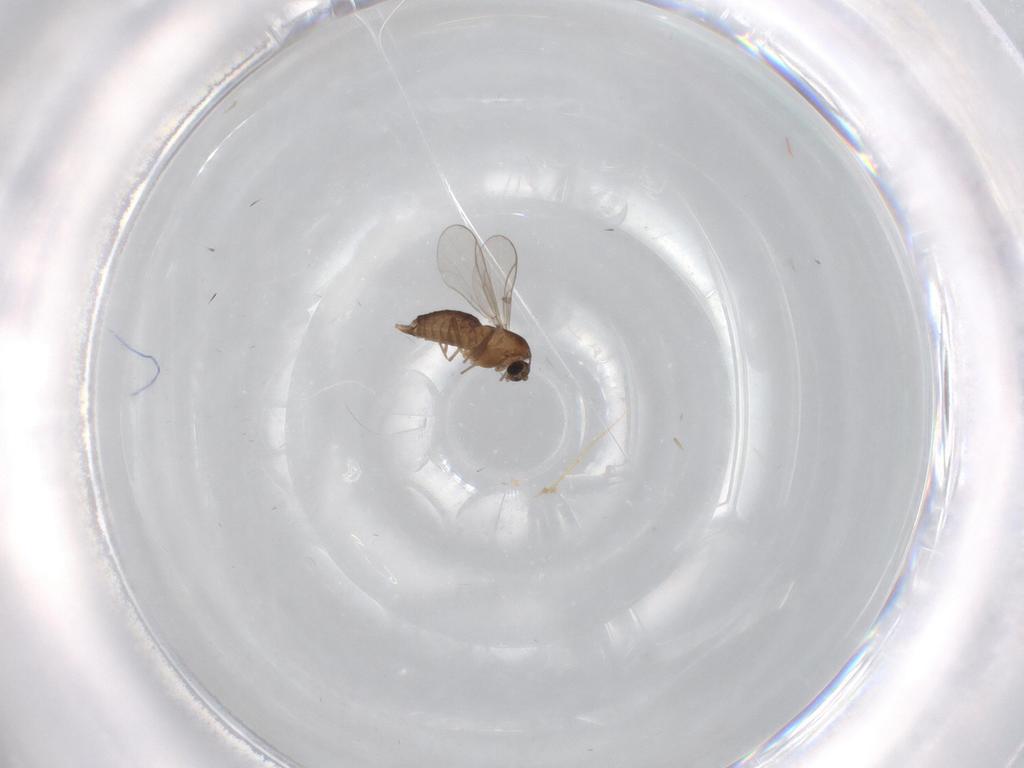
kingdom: Animalia
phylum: Arthropoda
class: Insecta
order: Diptera
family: Chironomidae
